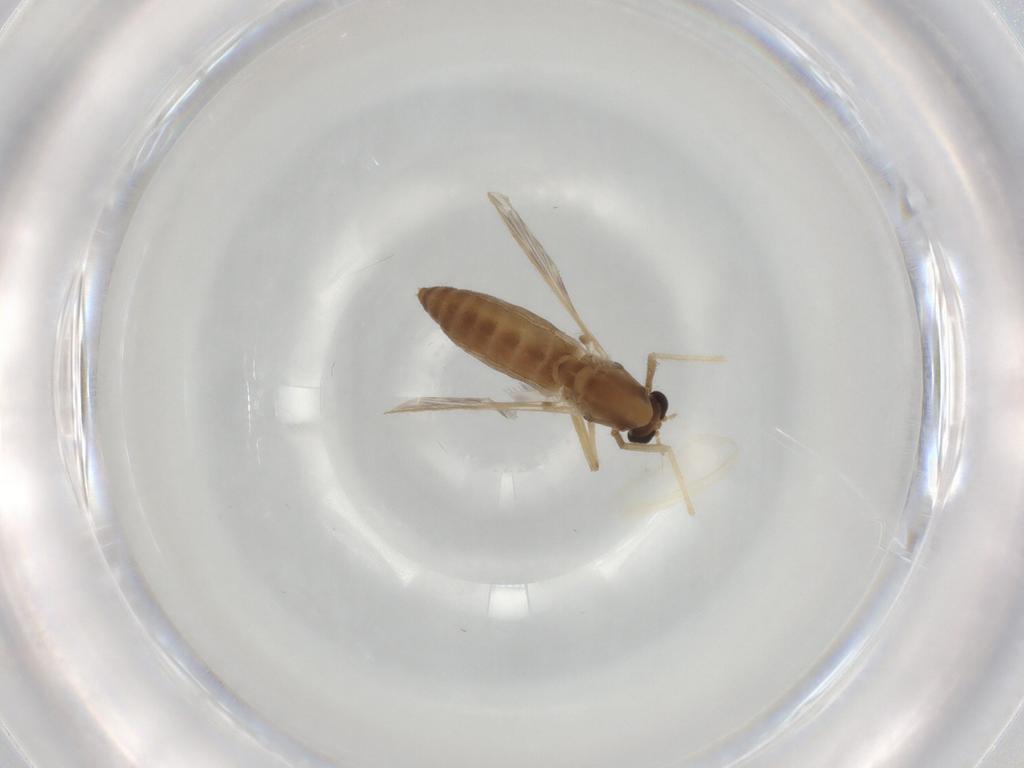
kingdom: Animalia
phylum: Arthropoda
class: Insecta
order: Diptera
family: Chironomidae
